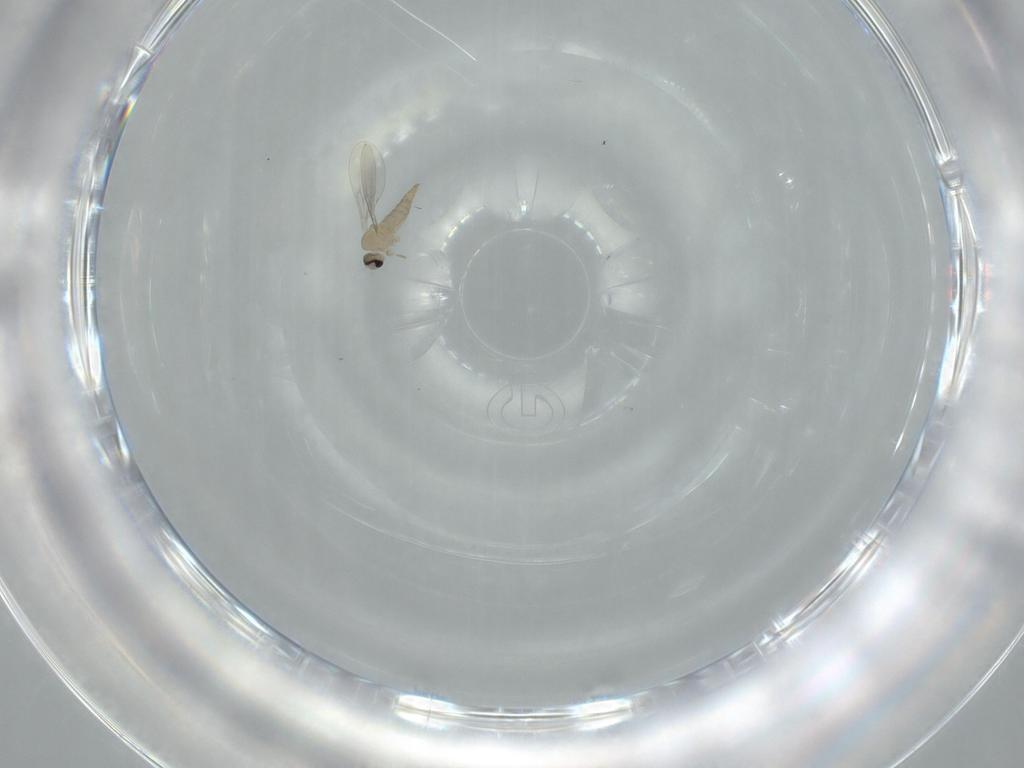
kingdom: Animalia
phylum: Arthropoda
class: Insecta
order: Diptera
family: Cecidomyiidae
